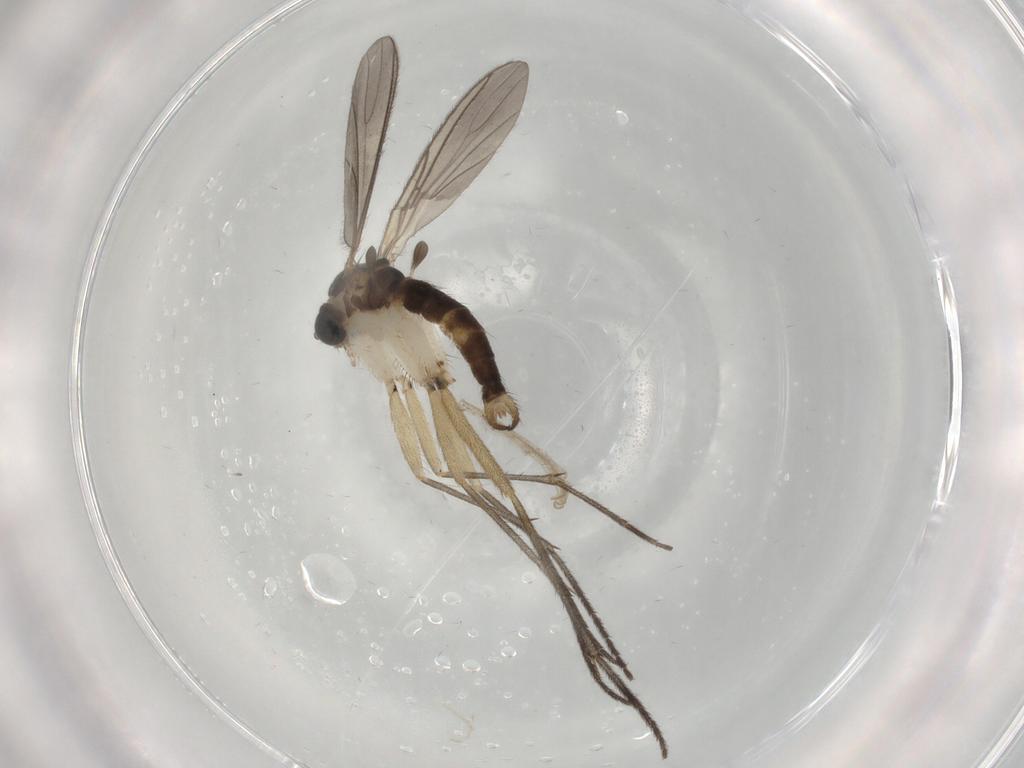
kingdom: Animalia
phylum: Arthropoda
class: Insecta
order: Diptera
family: Sciaridae
